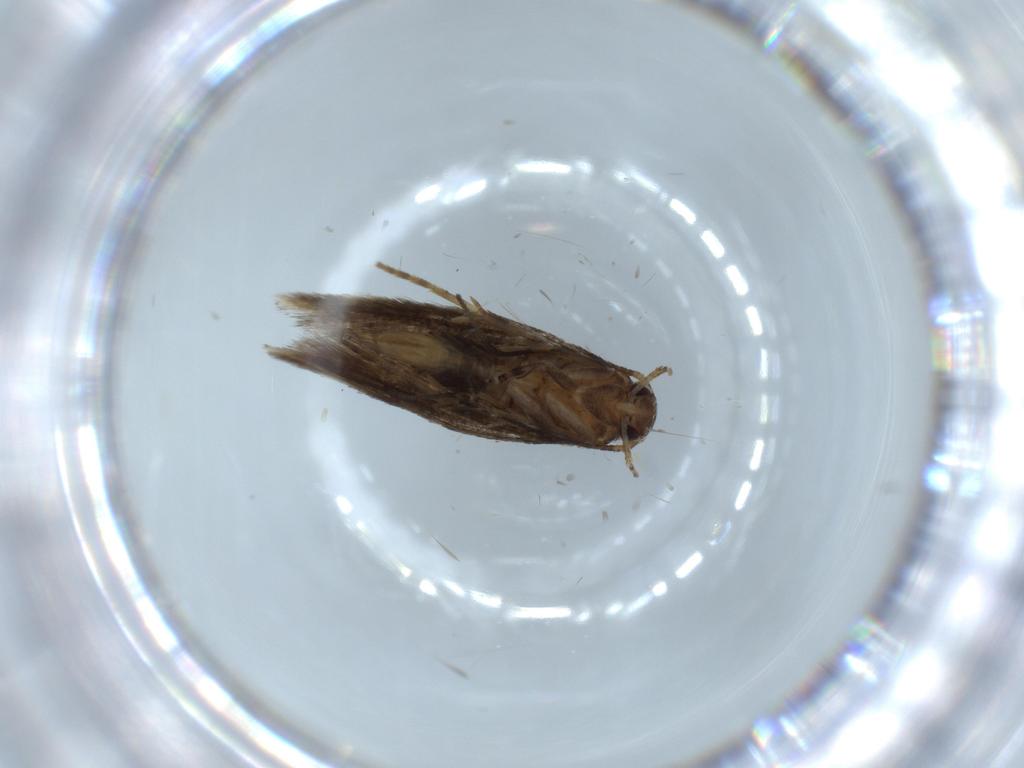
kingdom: Animalia
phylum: Arthropoda
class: Insecta
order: Lepidoptera
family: Elachistidae
